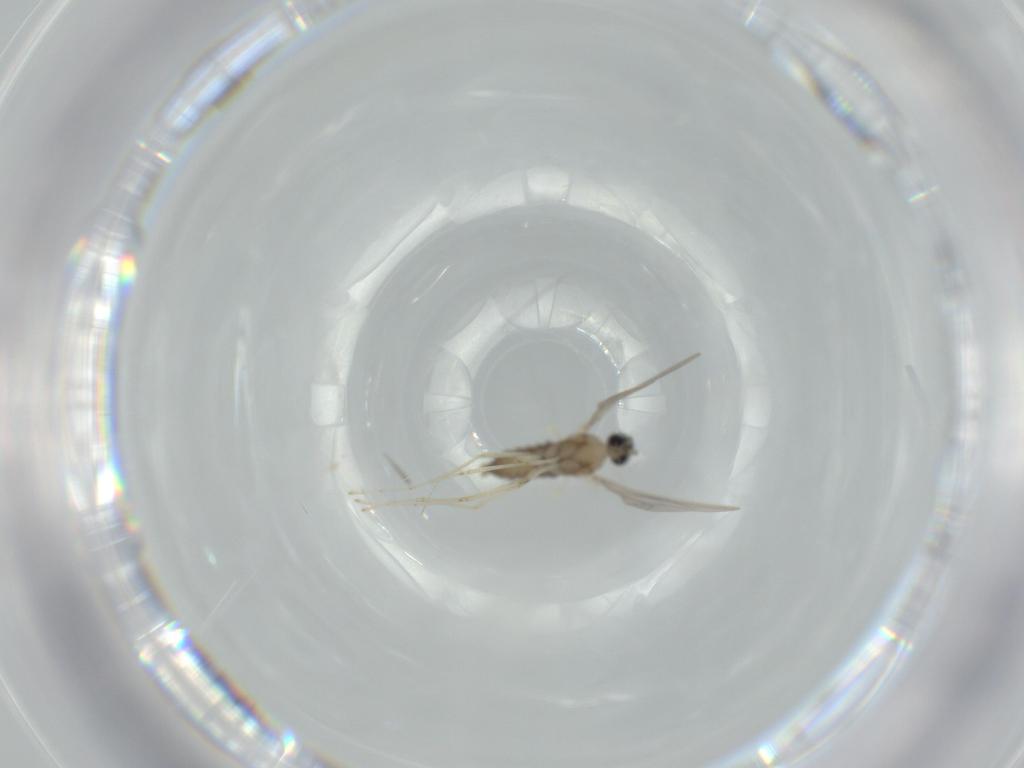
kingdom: Animalia
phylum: Arthropoda
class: Insecta
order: Diptera
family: Cecidomyiidae
